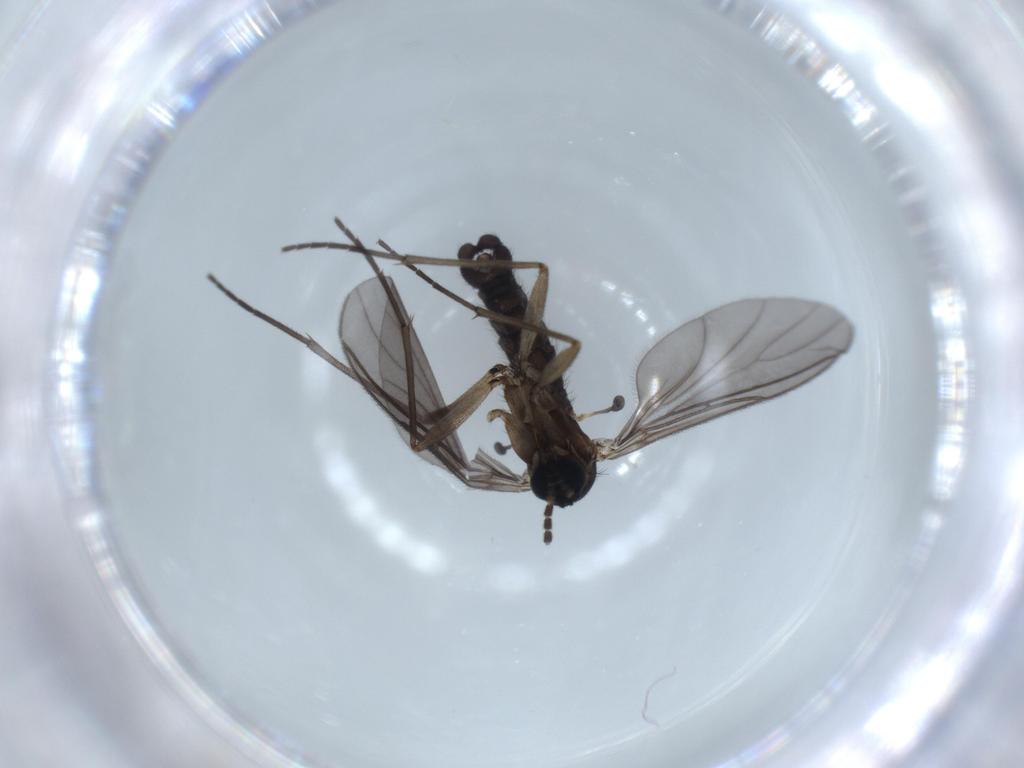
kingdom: Animalia
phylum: Arthropoda
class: Insecta
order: Diptera
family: Sciaridae
